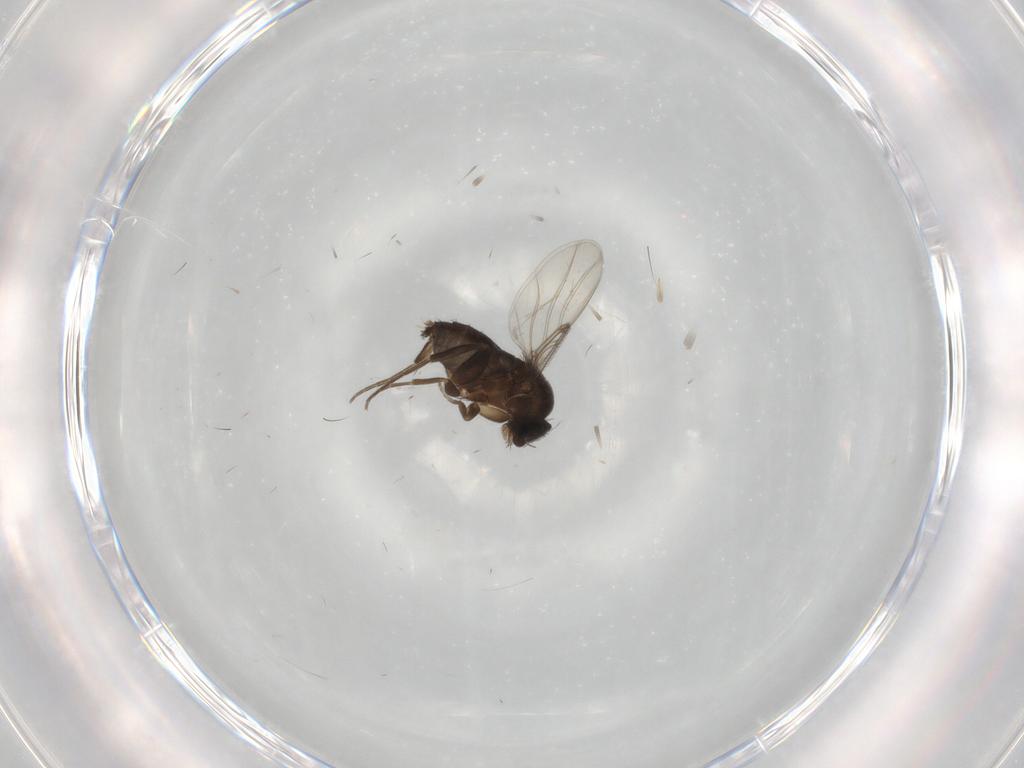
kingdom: Animalia
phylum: Arthropoda
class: Insecta
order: Diptera
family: Phoridae
